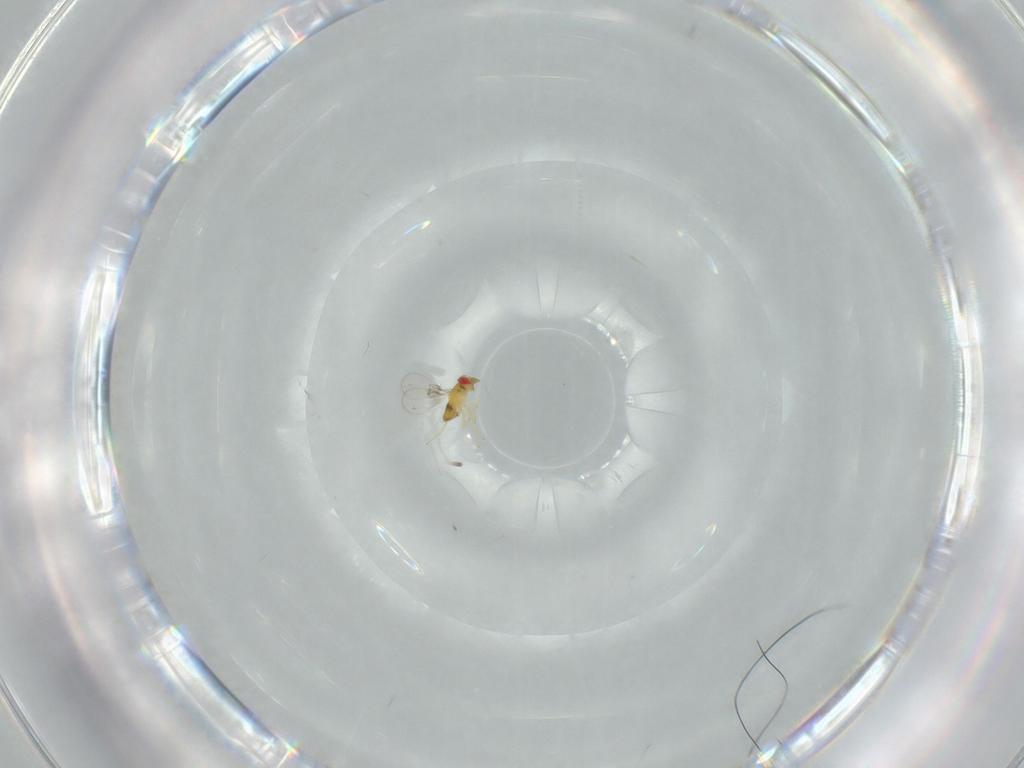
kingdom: Animalia
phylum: Arthropoda
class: Insecta
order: Hymenoptera
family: Trichogrammatidae
